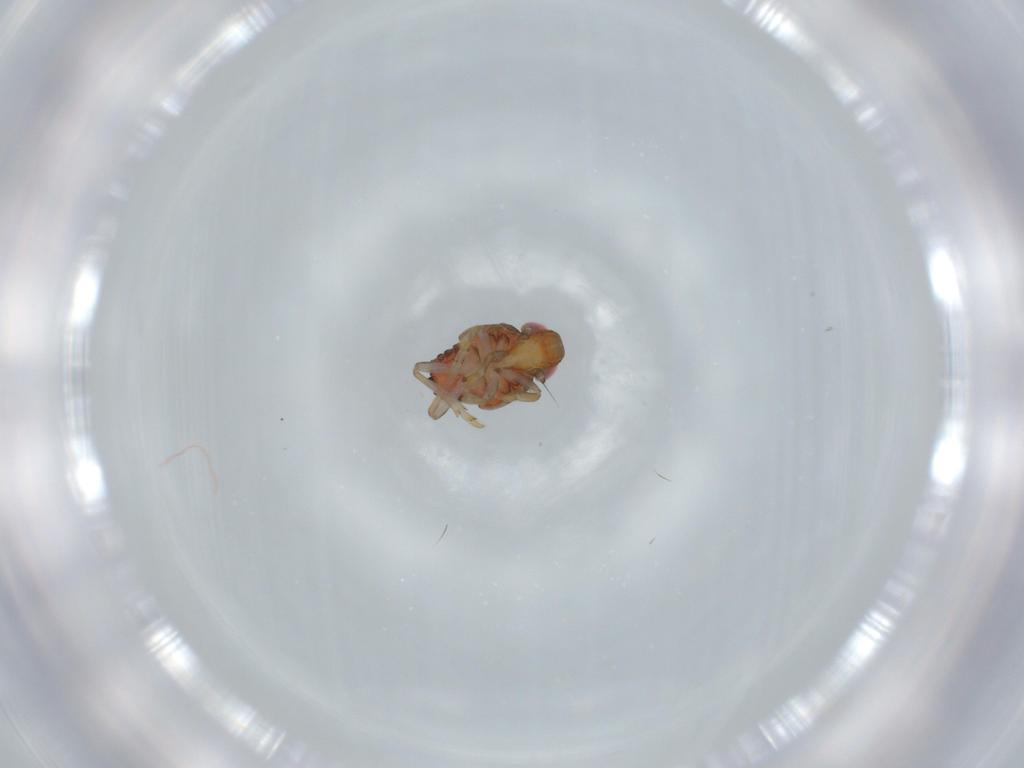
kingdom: Animalia
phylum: Arthropoda
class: Insecta
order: Hemiptera
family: Issidae
